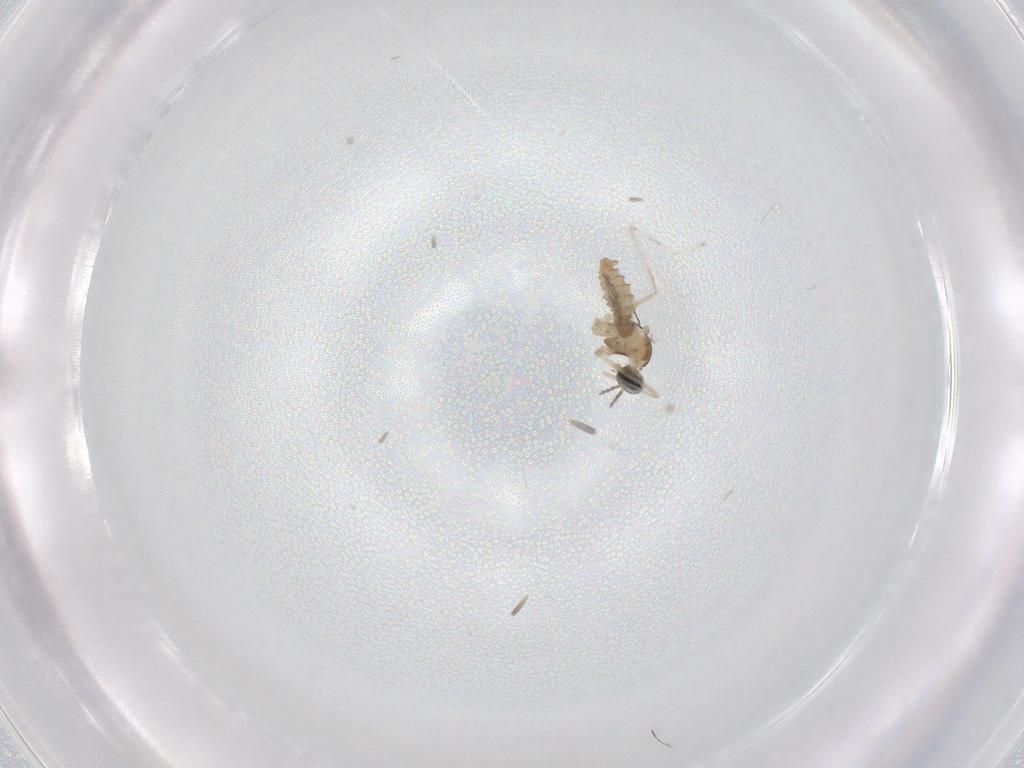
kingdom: Animalia
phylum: Arthropoda
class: Insecta
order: Diptera
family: Cecidomyiidae
